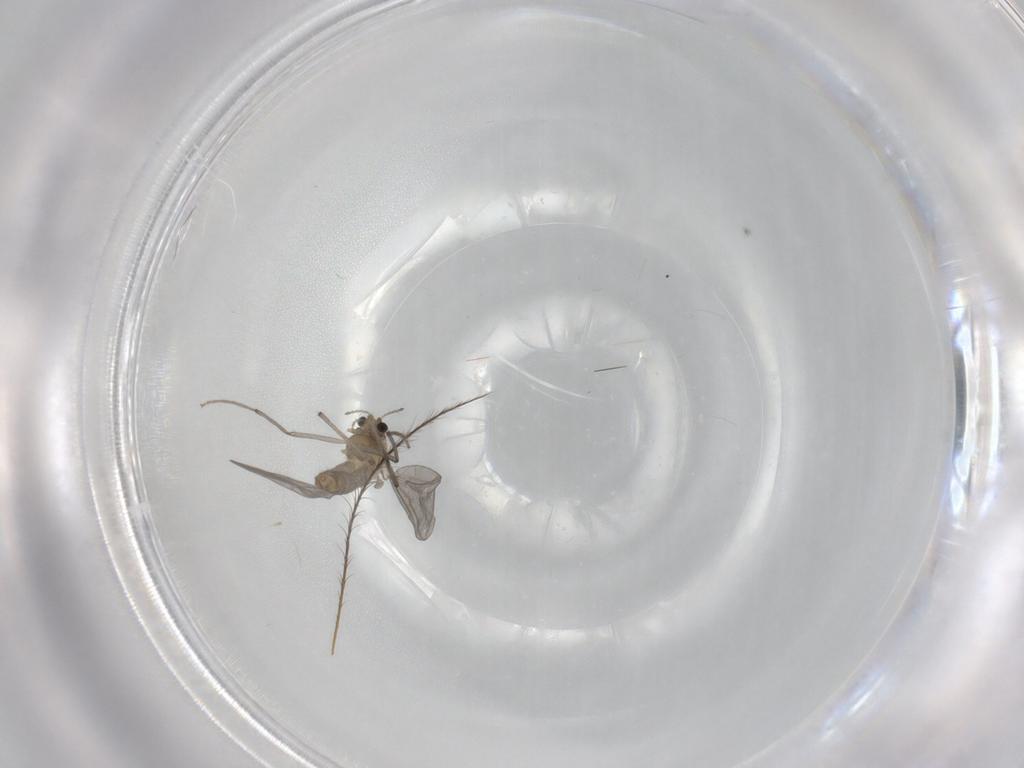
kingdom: Animalia
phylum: Arthropoda
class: Insecta
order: Diptera
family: Chironomidae
